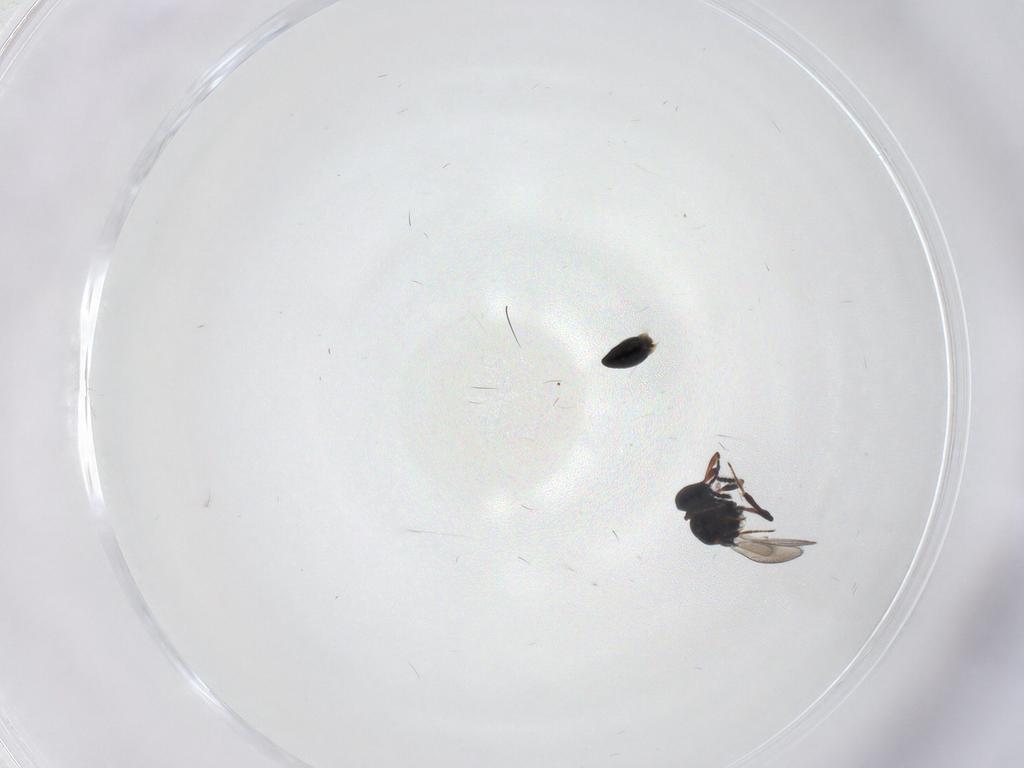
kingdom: Animalia
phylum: Arthropoda
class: Insecta
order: Hymenoptera
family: Platygastridae
